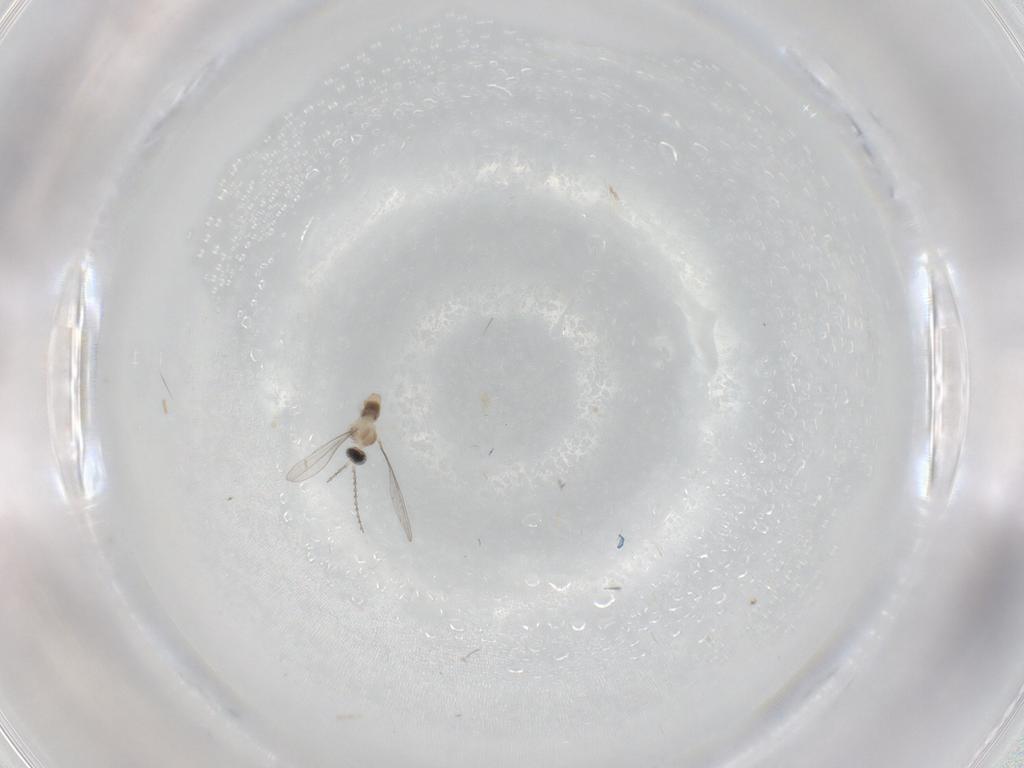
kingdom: Animalia
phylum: Arthropoda
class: Insecta
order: Diptera
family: Cecidomyiidae
